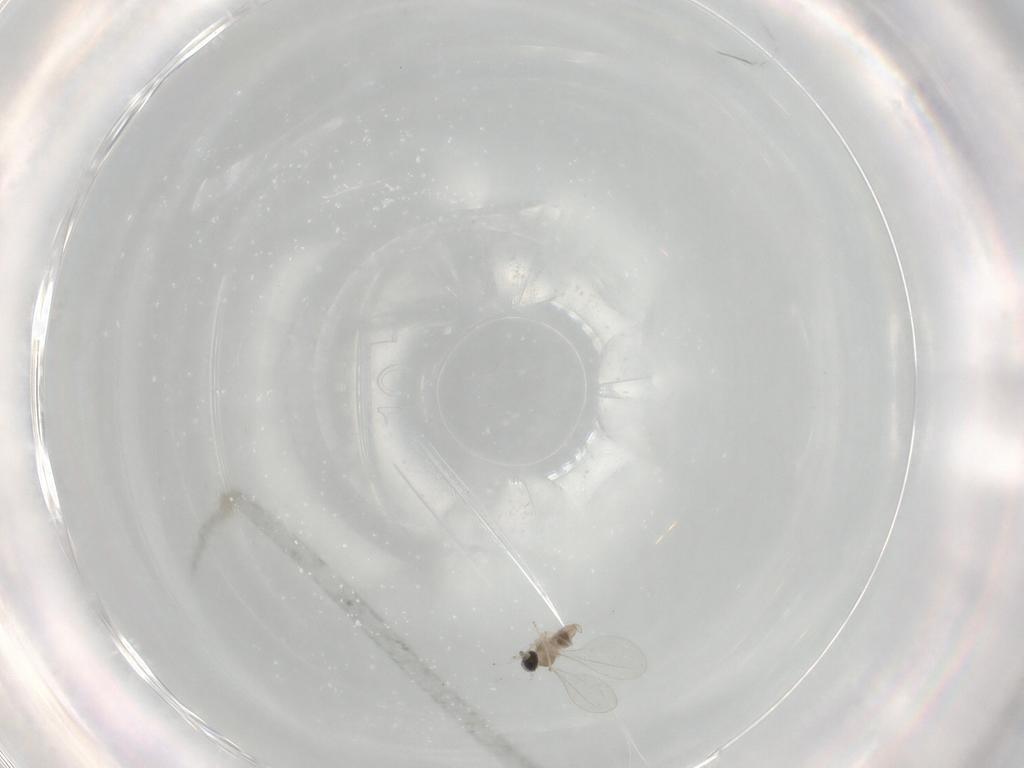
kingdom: Animalia
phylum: Arthropoda
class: Insecta
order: Diptera
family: Cecidomyiidae
